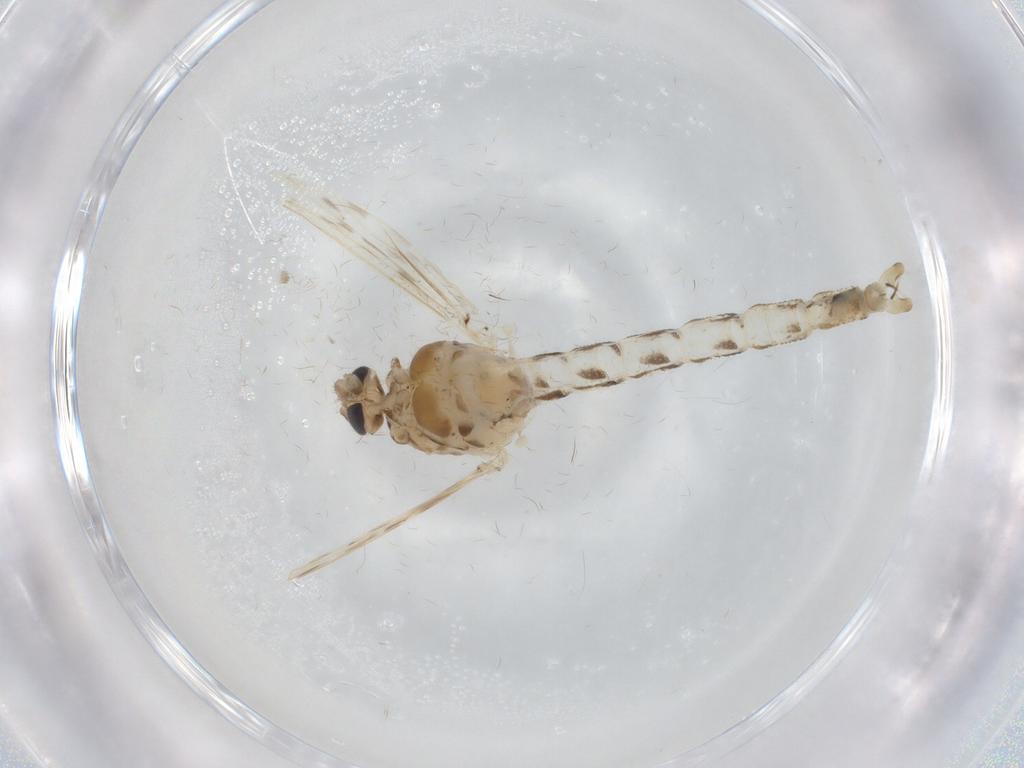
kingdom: Animalia
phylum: Arthropoda
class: Insecta
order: Diptera
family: Chaoboridae
